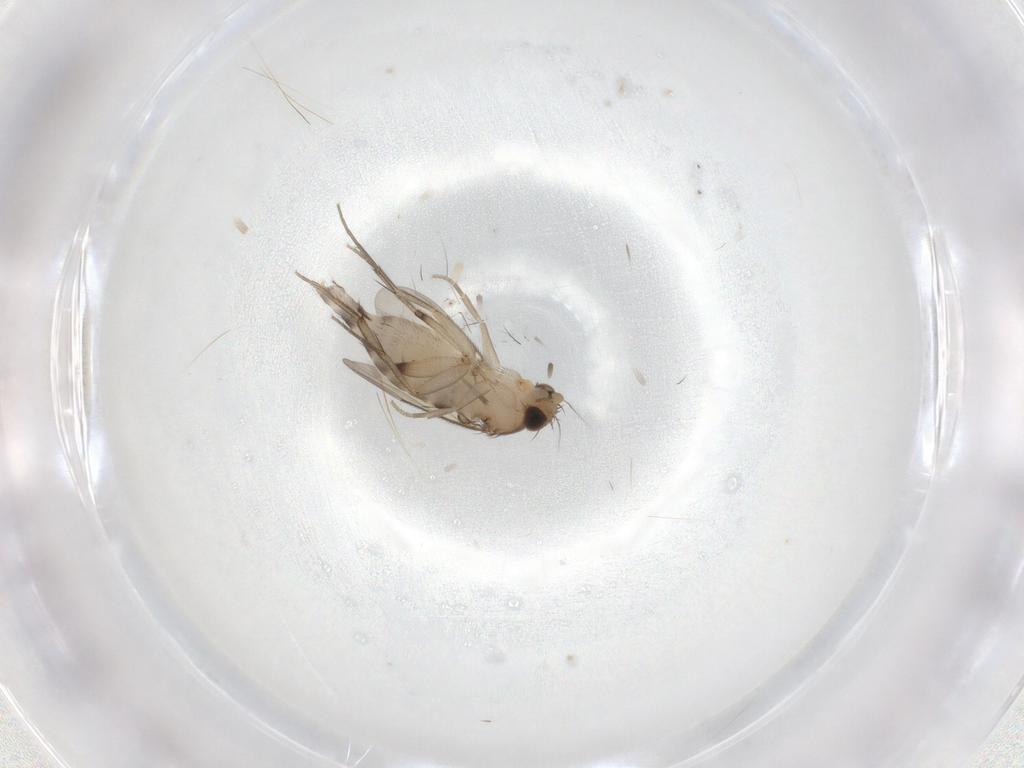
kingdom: Animalia
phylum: Arthropoda
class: Insecta
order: Diptera
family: Phoridae
